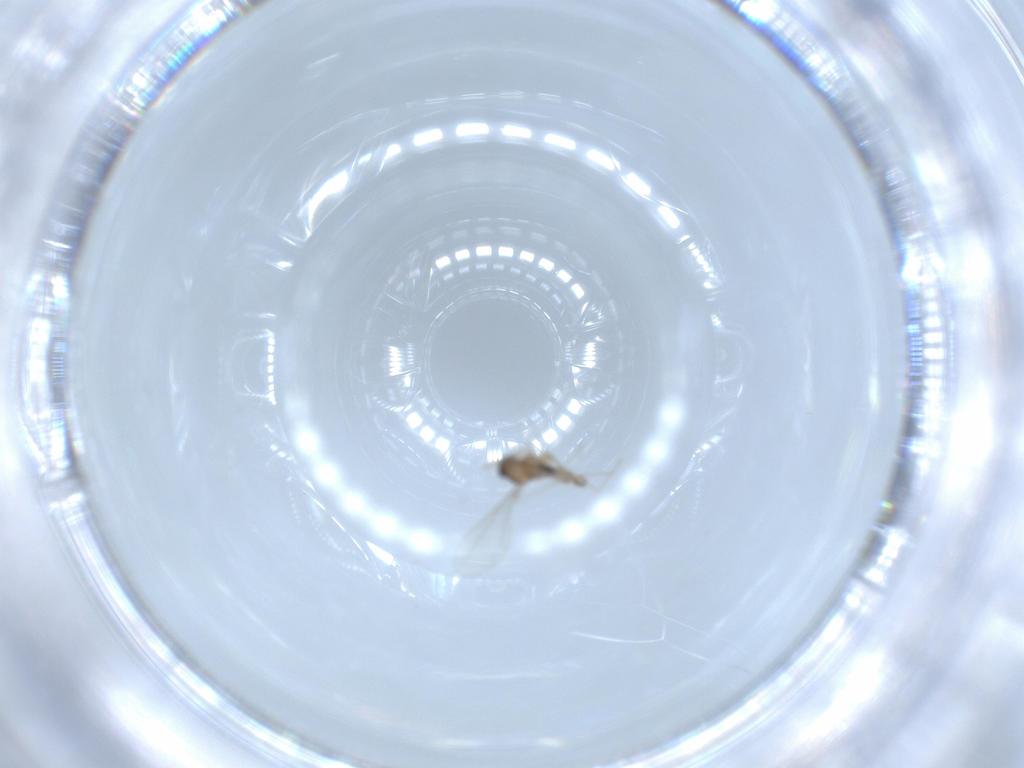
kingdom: Animalia
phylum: Arthropoda
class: Insecta
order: Diptera
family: Cecidomyiidae
